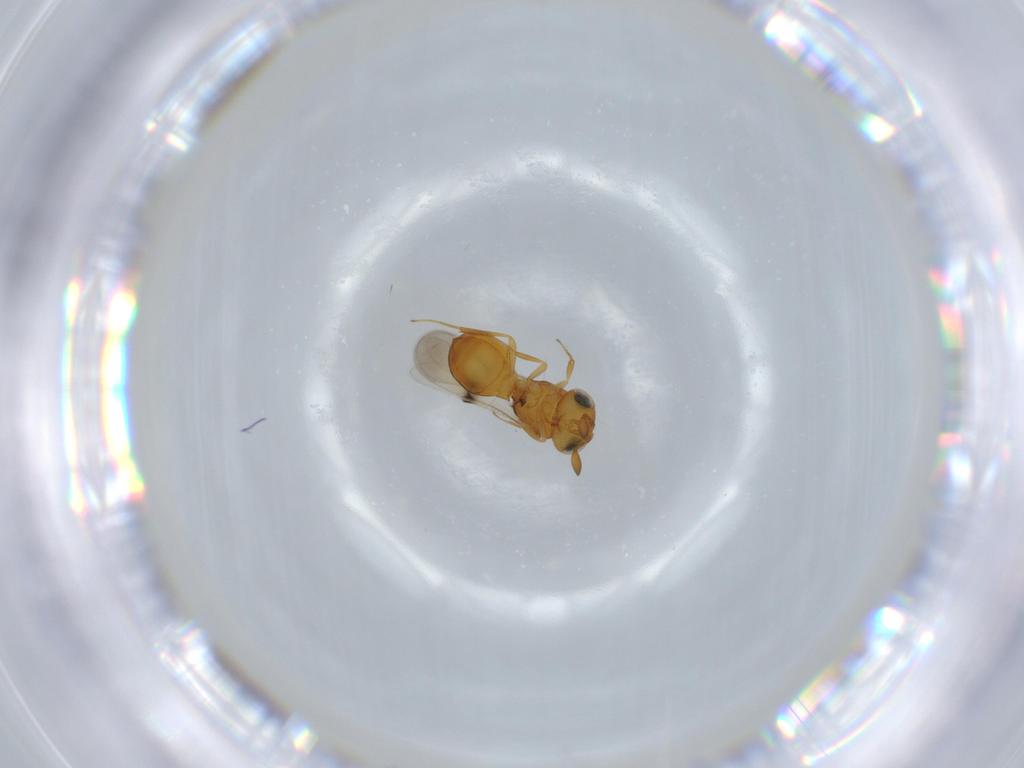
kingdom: Animalia
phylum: Arthropoda
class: Insecta
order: Hymenoptera
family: Scelionidae
